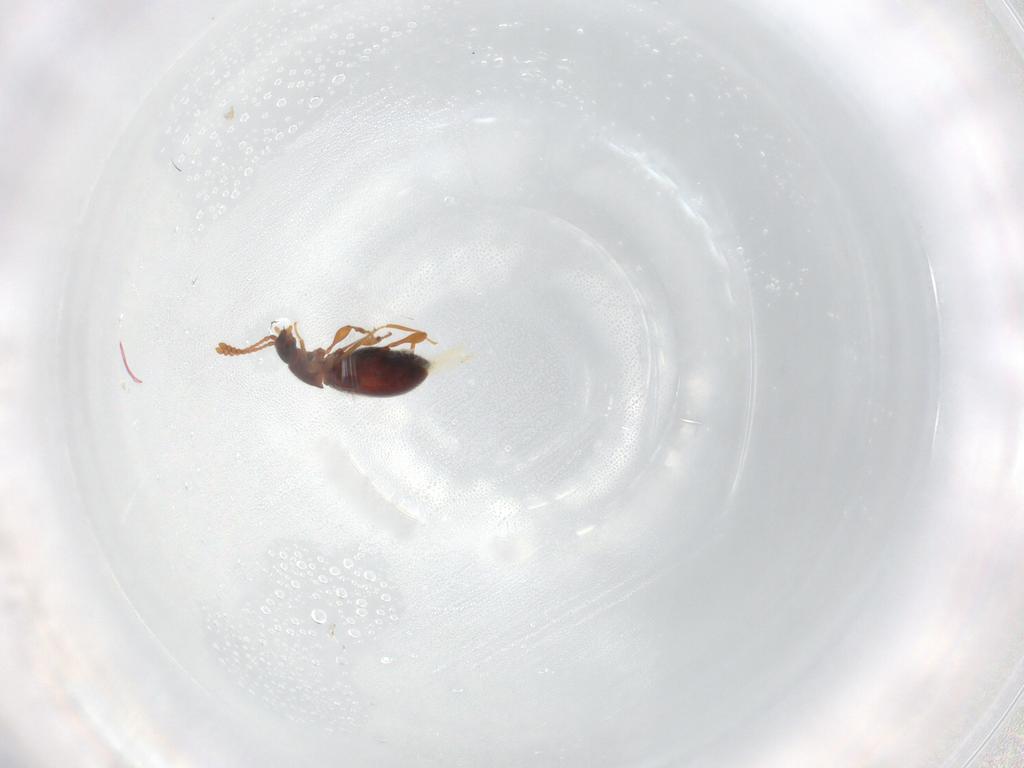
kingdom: Animalia
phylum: Arthropoda
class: Insecta
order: Coleoptera
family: Staphylinidae
